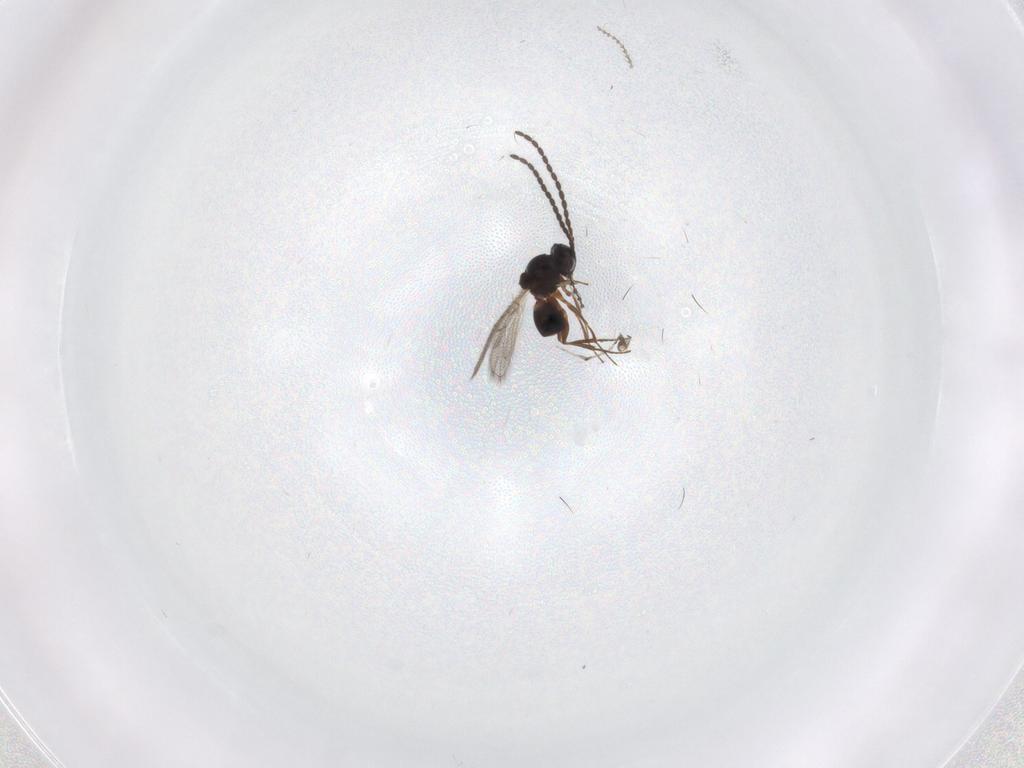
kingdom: Animalia
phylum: Arthropoda
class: Insecta
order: Hymenoptera
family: Figitidae
